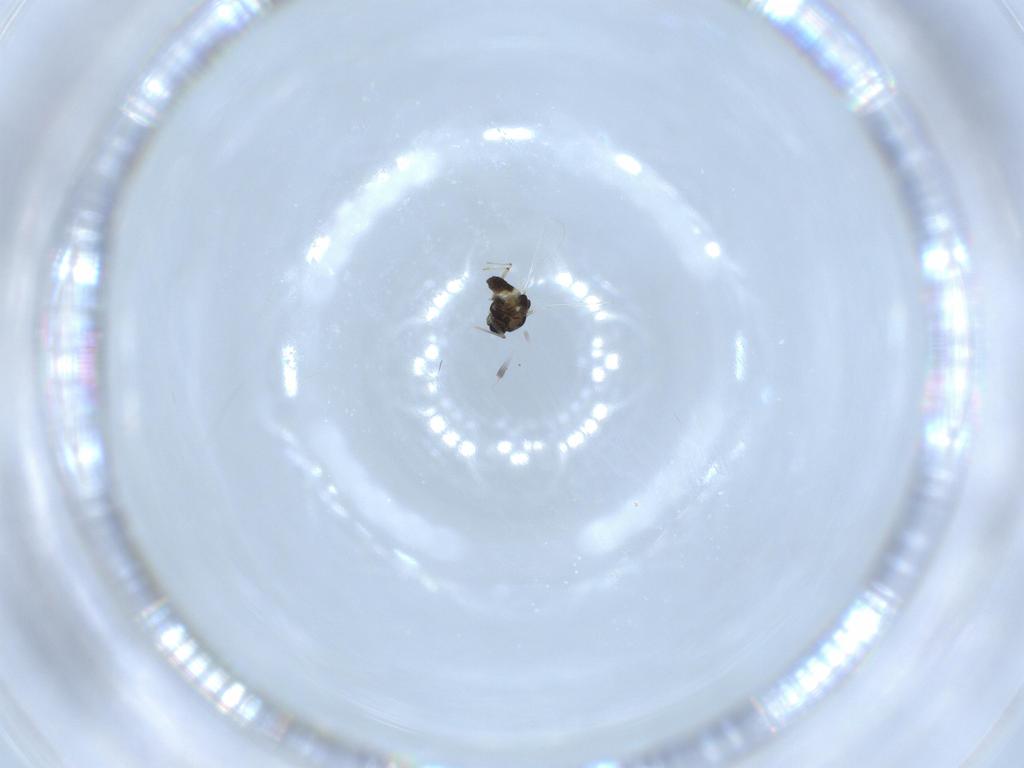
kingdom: Animalia
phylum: Arthropoda
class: Insecta
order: Diptera
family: Chironomidae
